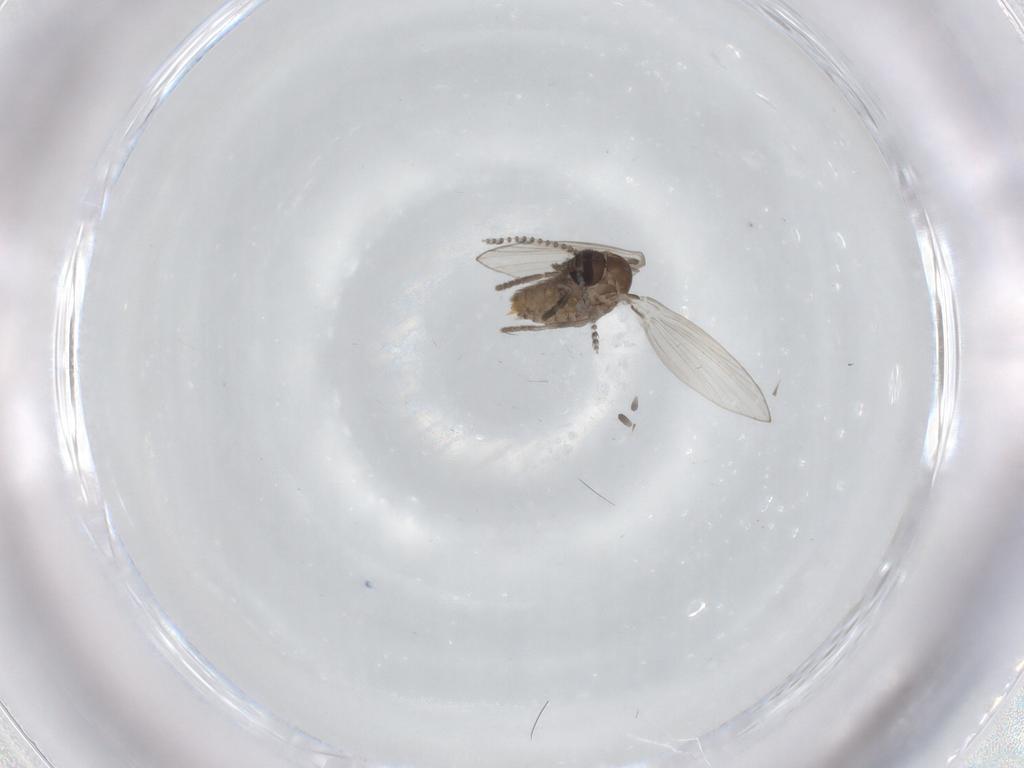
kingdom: Animalia
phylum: Arthropoda
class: Insecta
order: Diptera
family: Psychodidae
